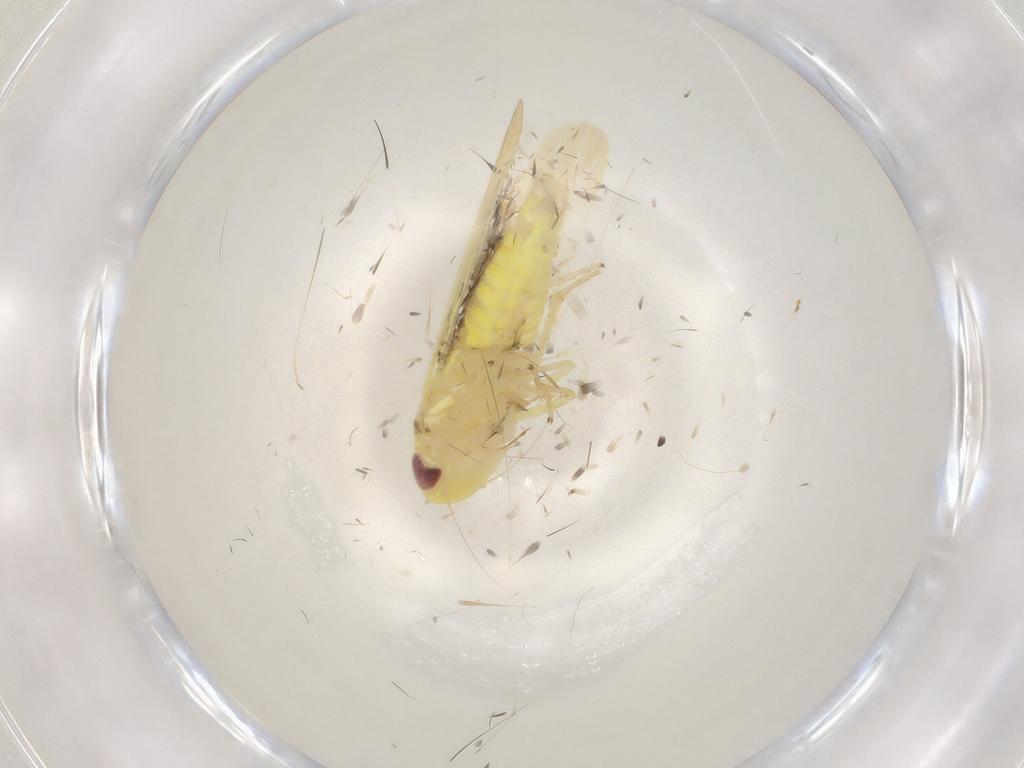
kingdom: Animalia
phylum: Arthropoda
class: Insecta
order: Hemiptera
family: Cicadellidae
